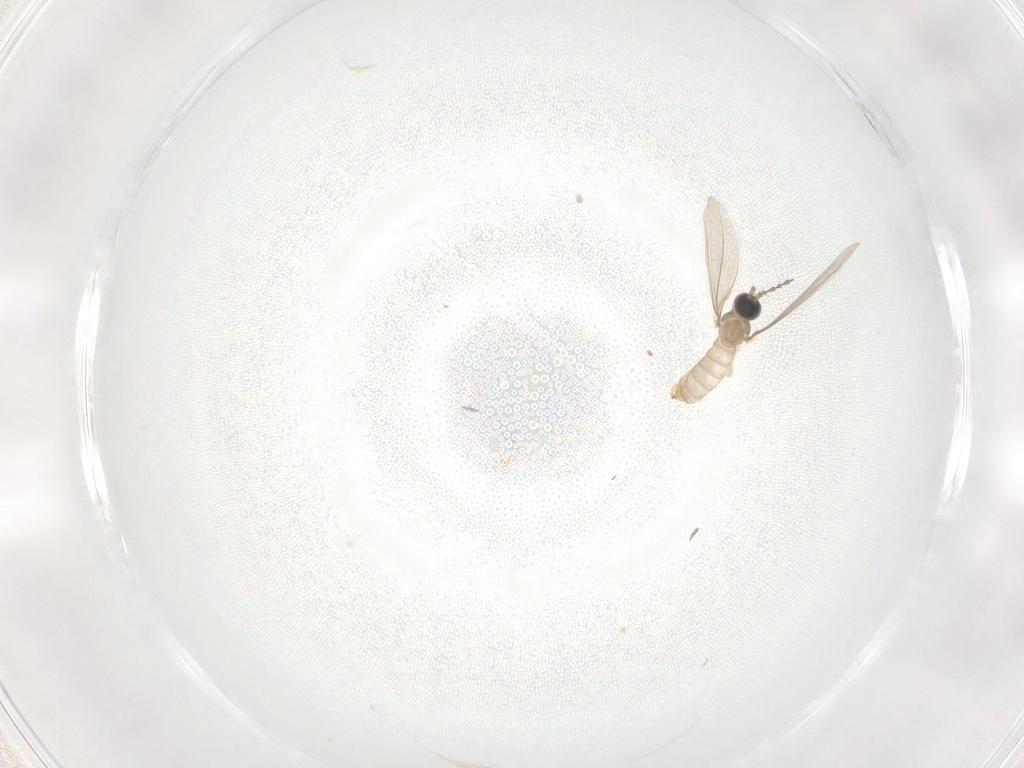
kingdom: Animalia
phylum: Arthropoda
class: Insecta
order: Diptera
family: Cecidomyiidae
